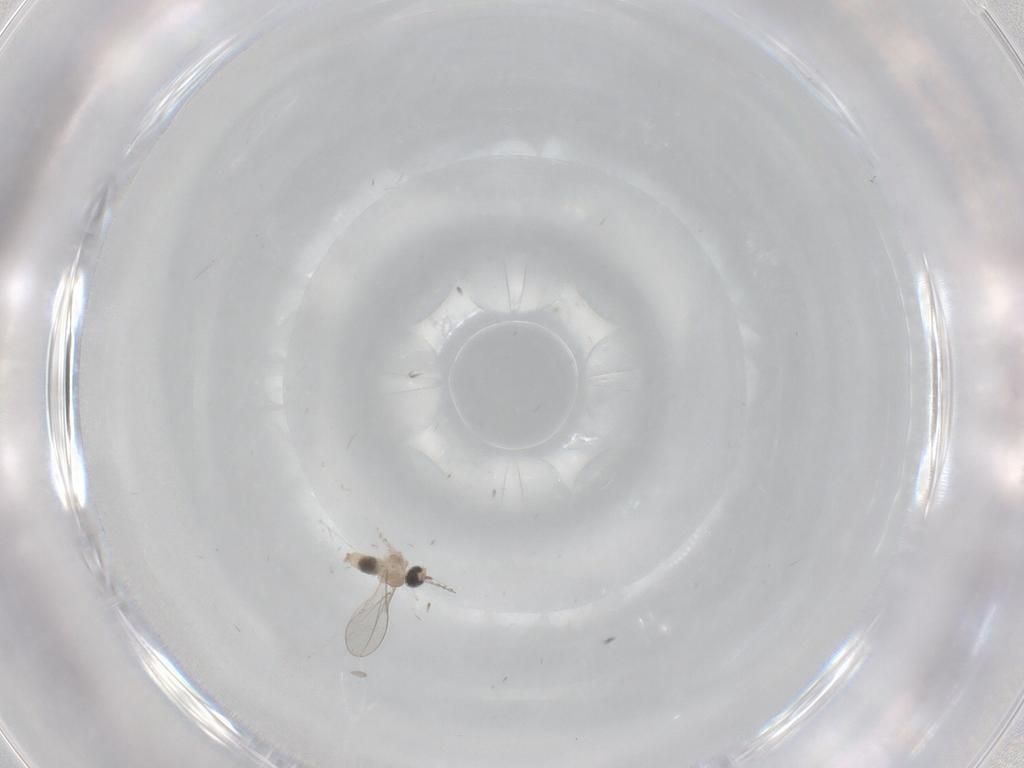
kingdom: Animalia
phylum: Arthropoda
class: Insecta
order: Diptera
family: Cecidomyiidae
